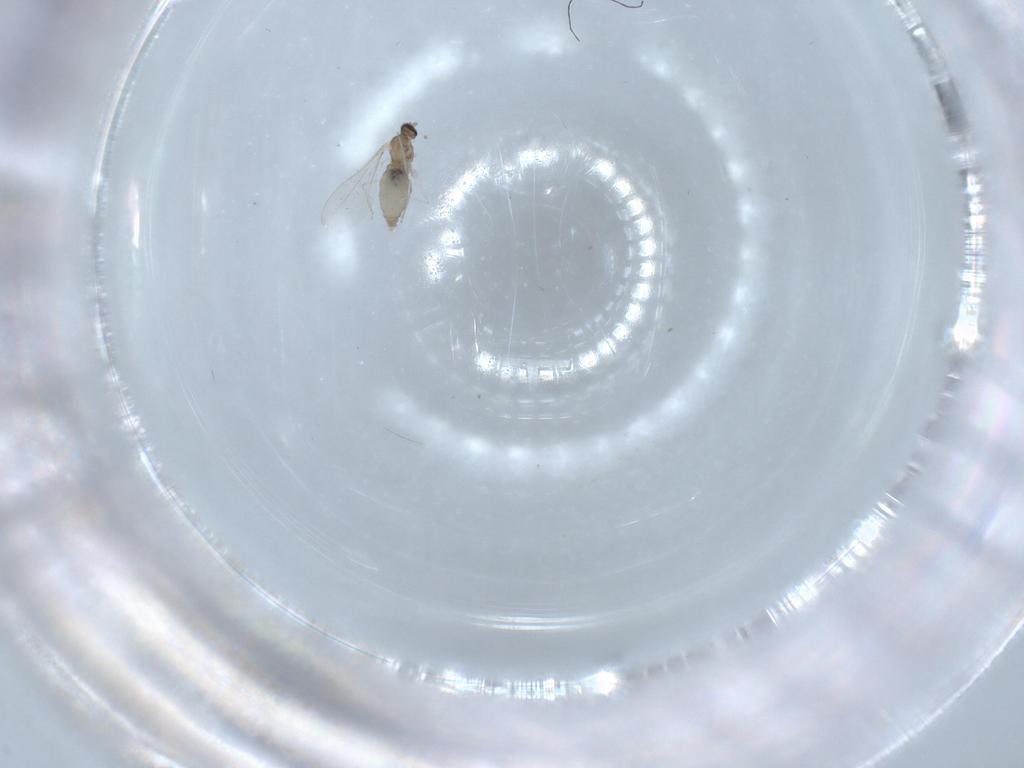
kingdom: Animalia
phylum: Arthropoda
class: Insecta
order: Diptera
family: Cecidomyiidae
